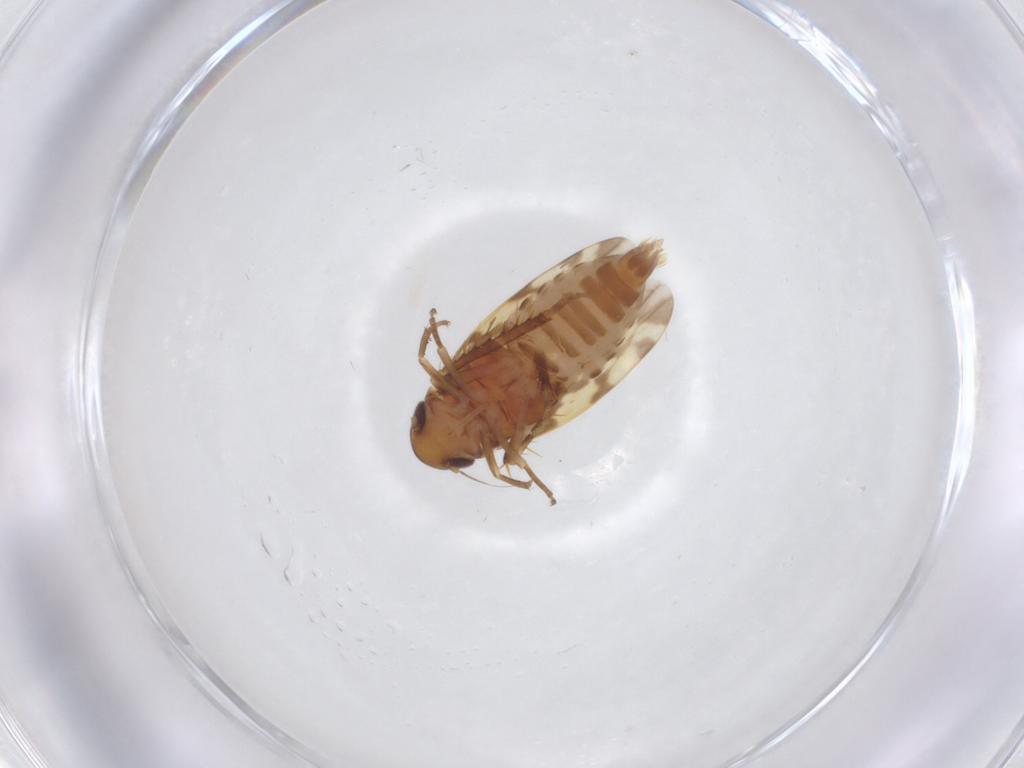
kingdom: Animalia
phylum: Arthropoda
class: Insecta
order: Hemiptera
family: Cicadellidae
